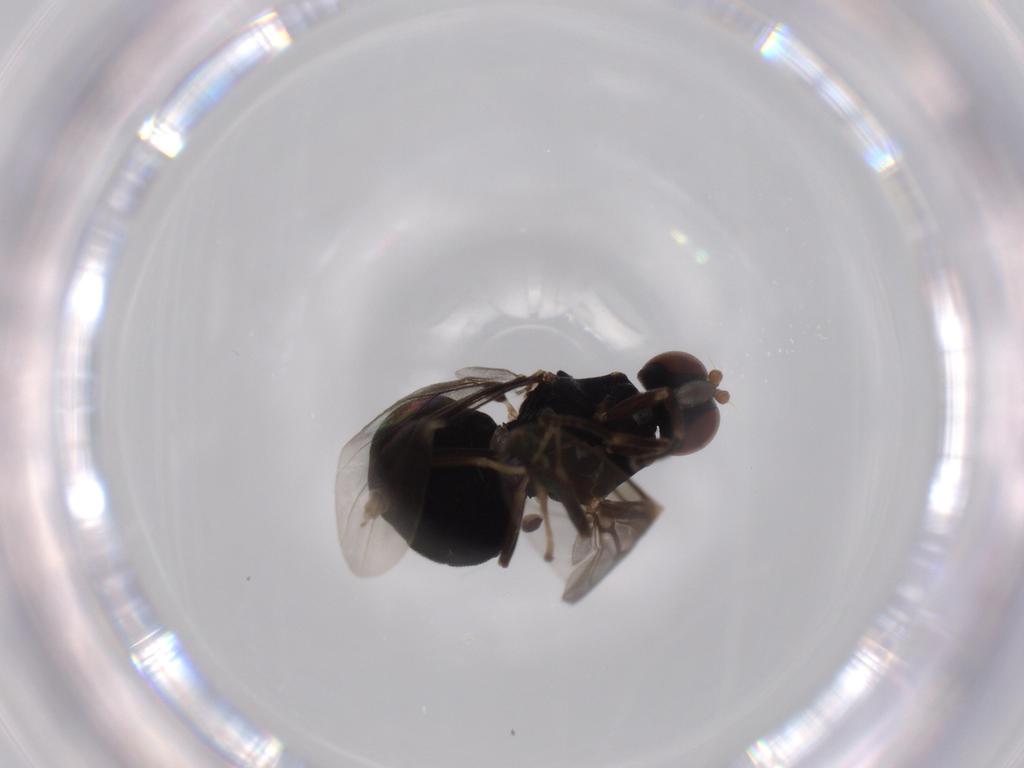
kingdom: Animalia
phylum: Arthropoda
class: Insecta
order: Diptera
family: Stratiomyidae
